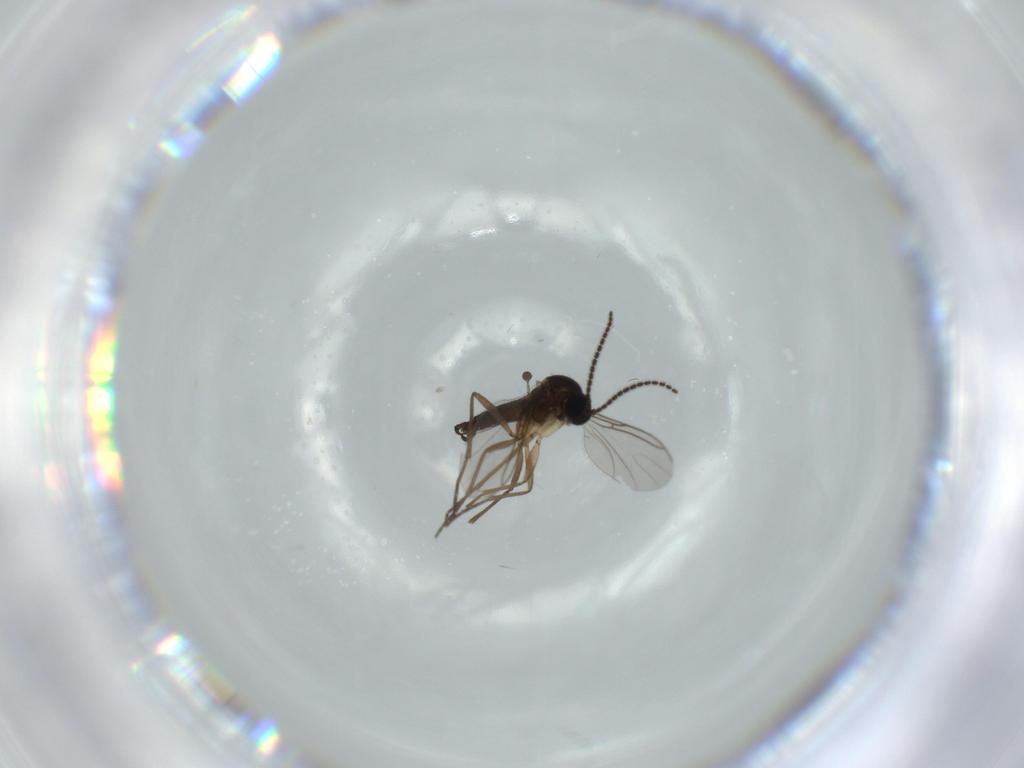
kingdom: Animalia
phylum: Arthropoda
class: Insecta
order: Diptera
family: Sciaridae
